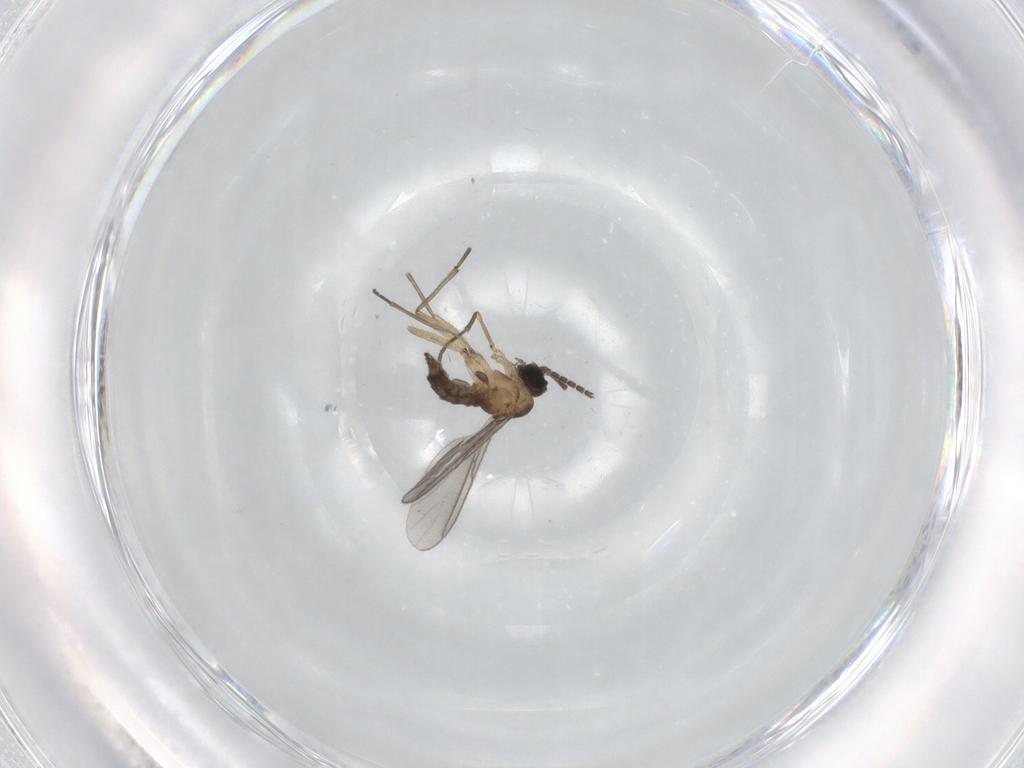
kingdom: Animalia
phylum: Arthropoda
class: Insecta
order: Diptera
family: Sciaridae
